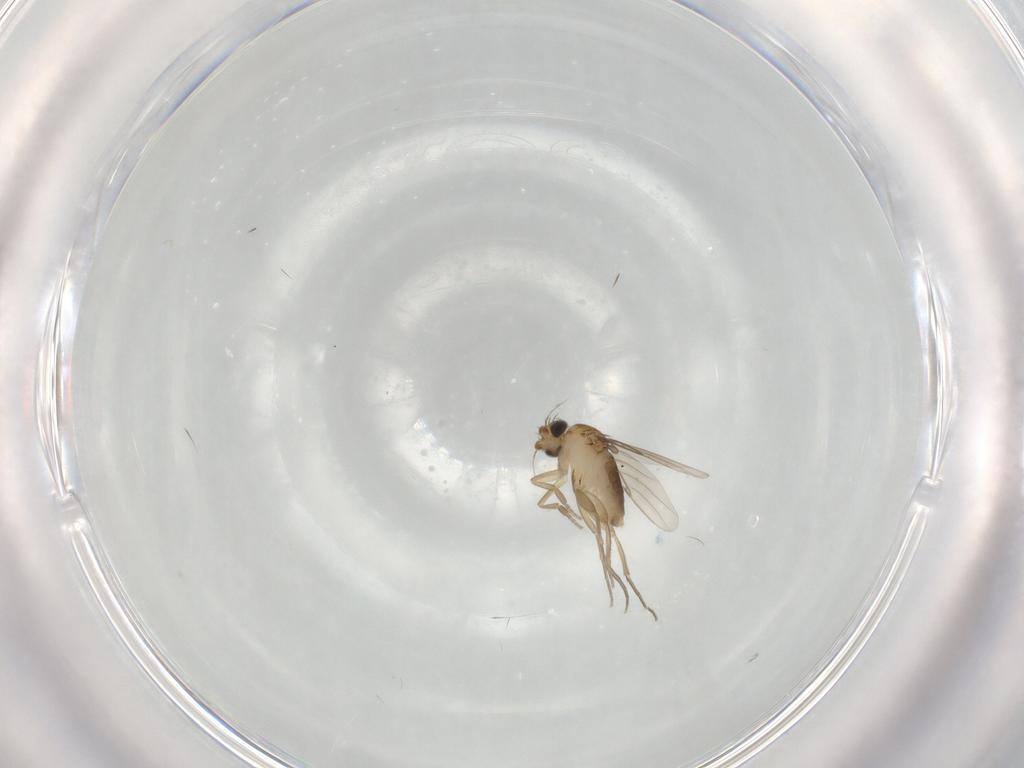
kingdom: Animalia
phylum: Arthropoda
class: Insecta
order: Diptera
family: Phoridae
